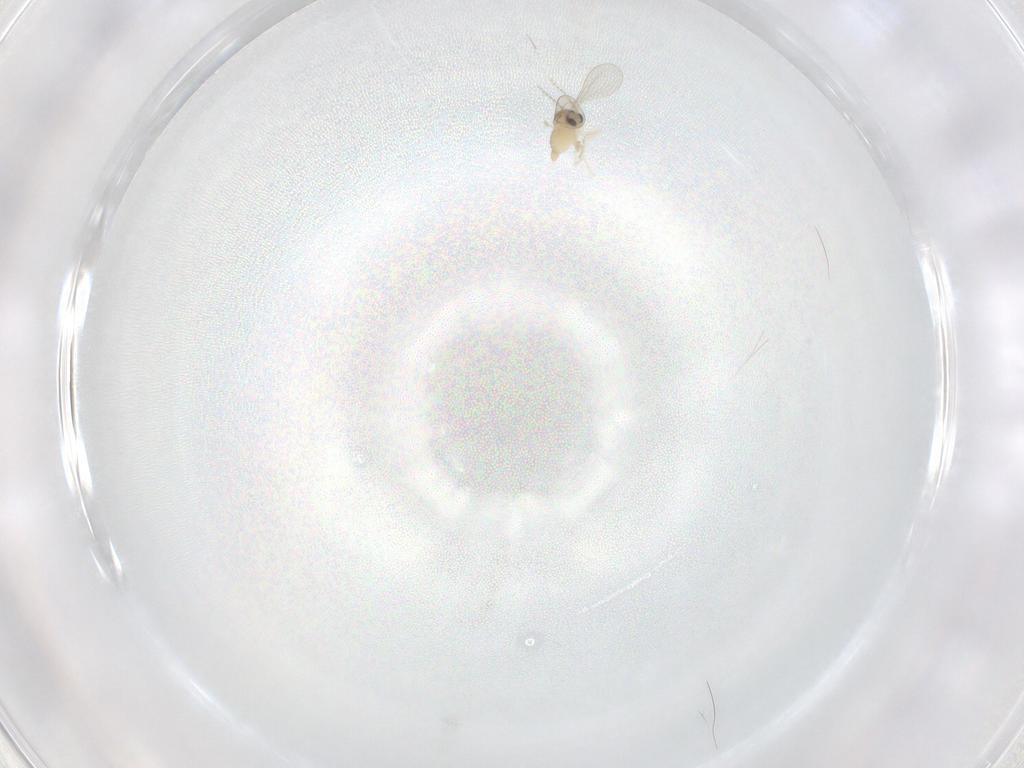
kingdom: Animalia
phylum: Arthropoda
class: Insecta
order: Diptera
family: Cecidomyiidae
